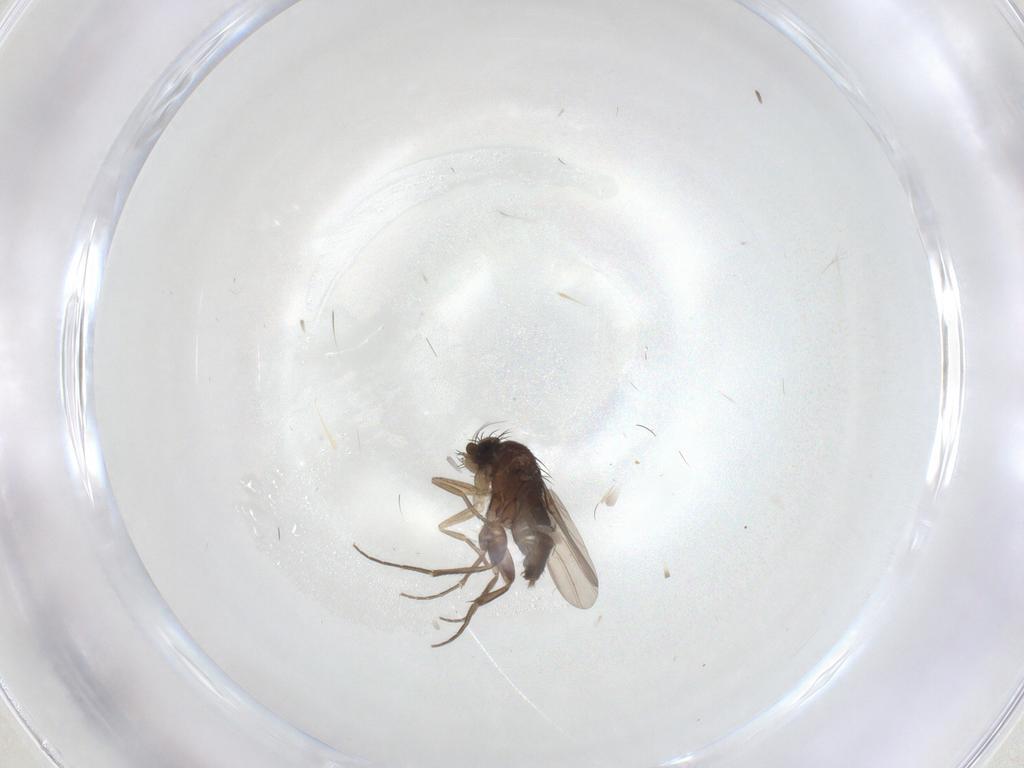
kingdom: Animalia
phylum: Arthropoda
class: Insecta
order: Diptera
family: Phoridae
